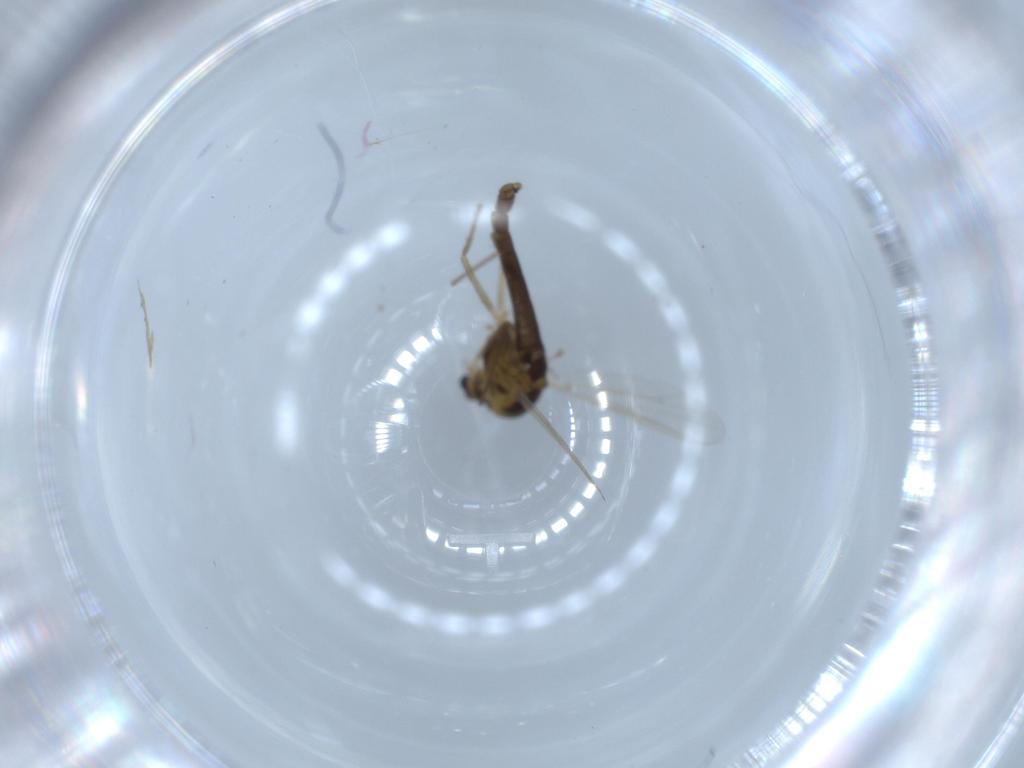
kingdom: Animalia
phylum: Arthropoda
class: Insecta
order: Diptera
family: Chironomidae
